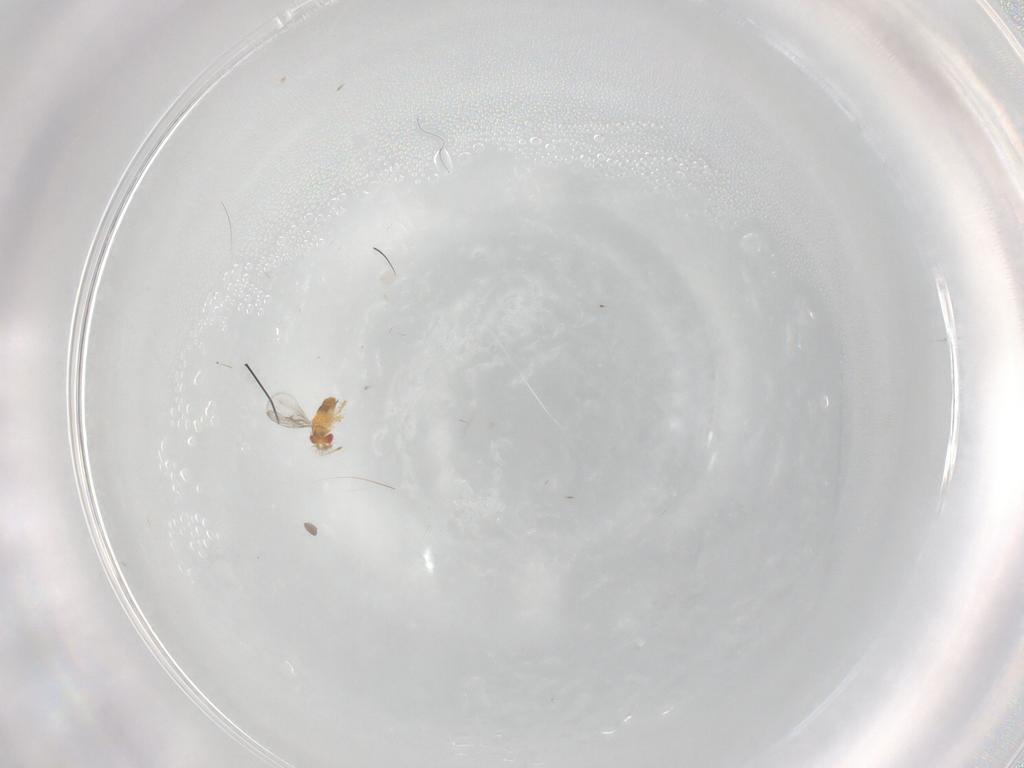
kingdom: Animalia
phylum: Arthropoda
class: Insecta
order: Hymenoptera
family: Trichogrammatidae
